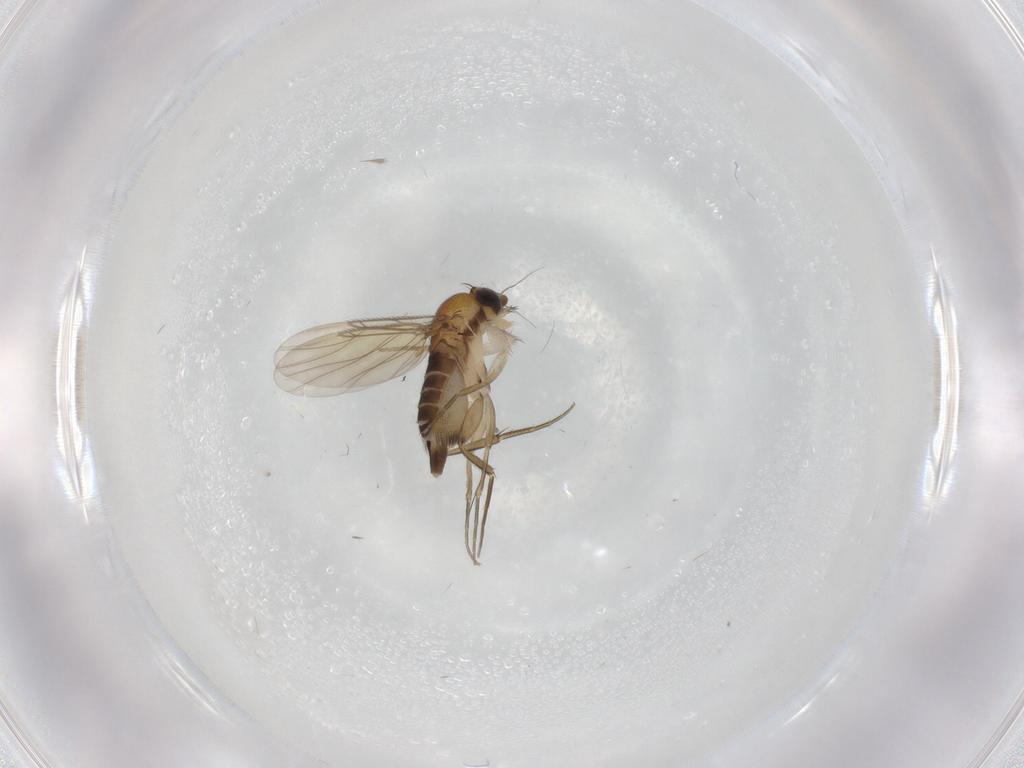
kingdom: Animalia
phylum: Arthropoda
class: Insecta
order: Diptera
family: Phoridae
